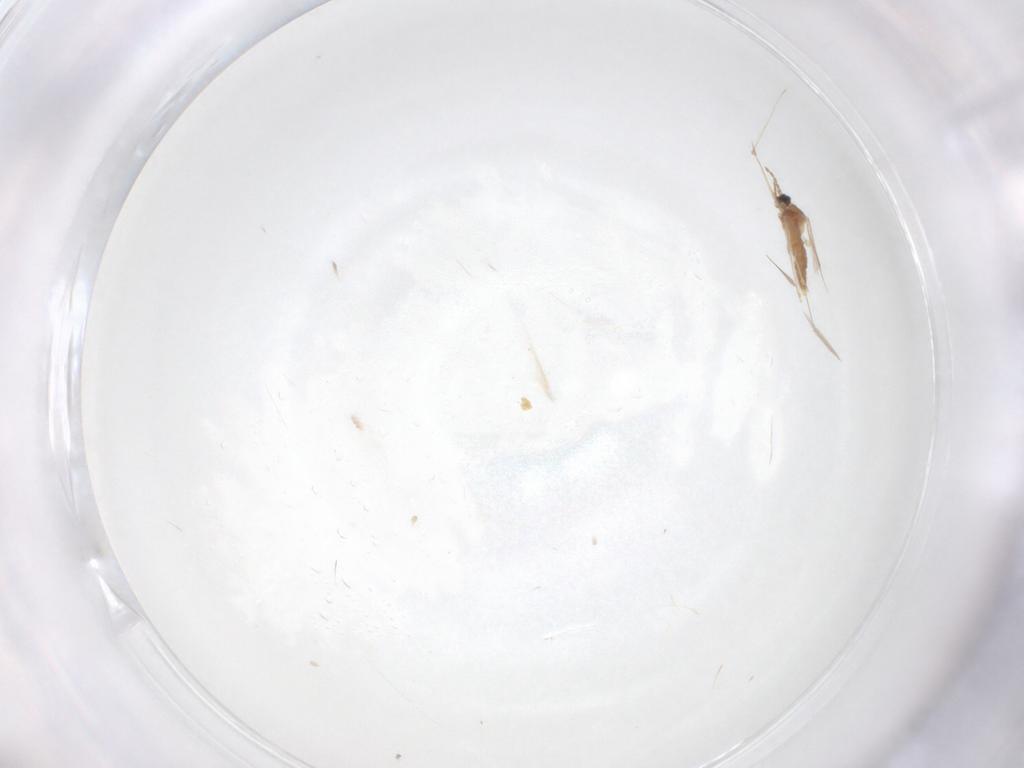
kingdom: Animalia
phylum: Arthropoda
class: Insecta
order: Diptera
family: Cecidomyiidae
